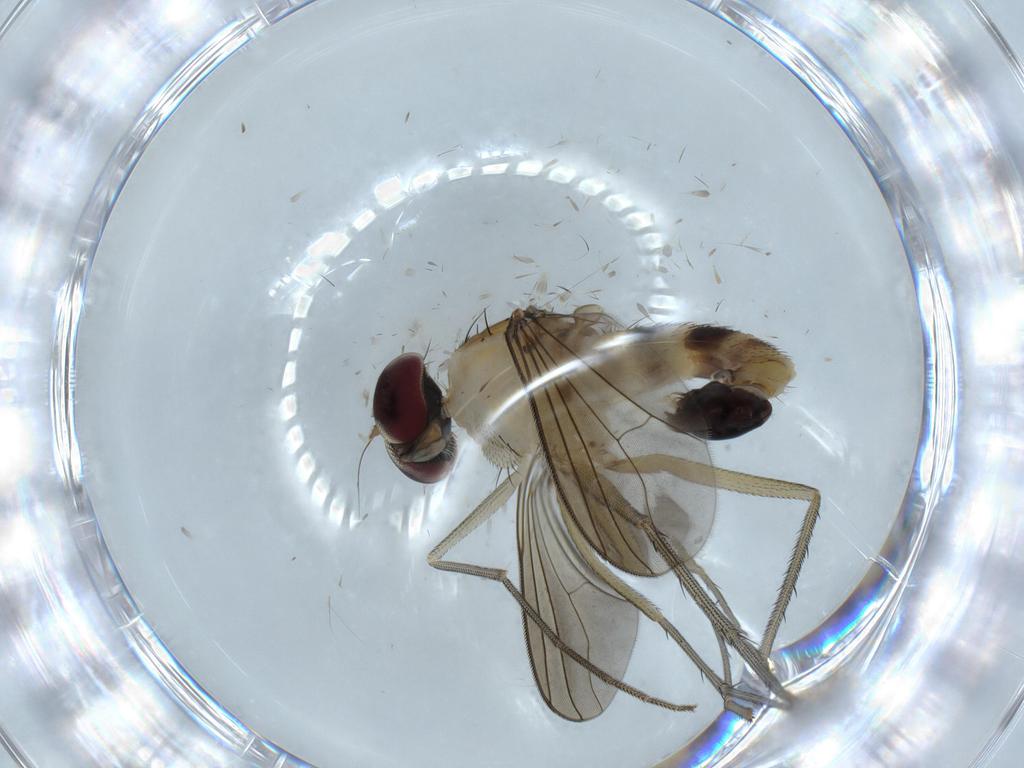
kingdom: Animalia
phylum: Arthropoda
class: Insecta
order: Diptera
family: Dolichopodidae
